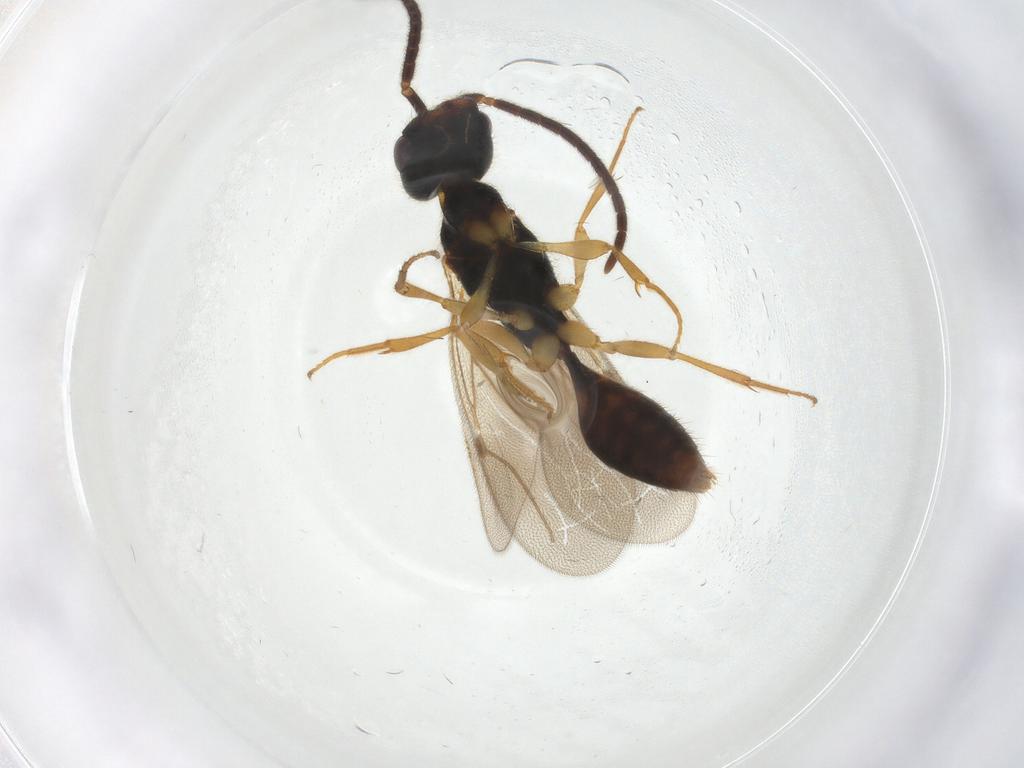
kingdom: Animalia
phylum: Arthropoda
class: Insecta
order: Hymenoptera
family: Bethylidae
